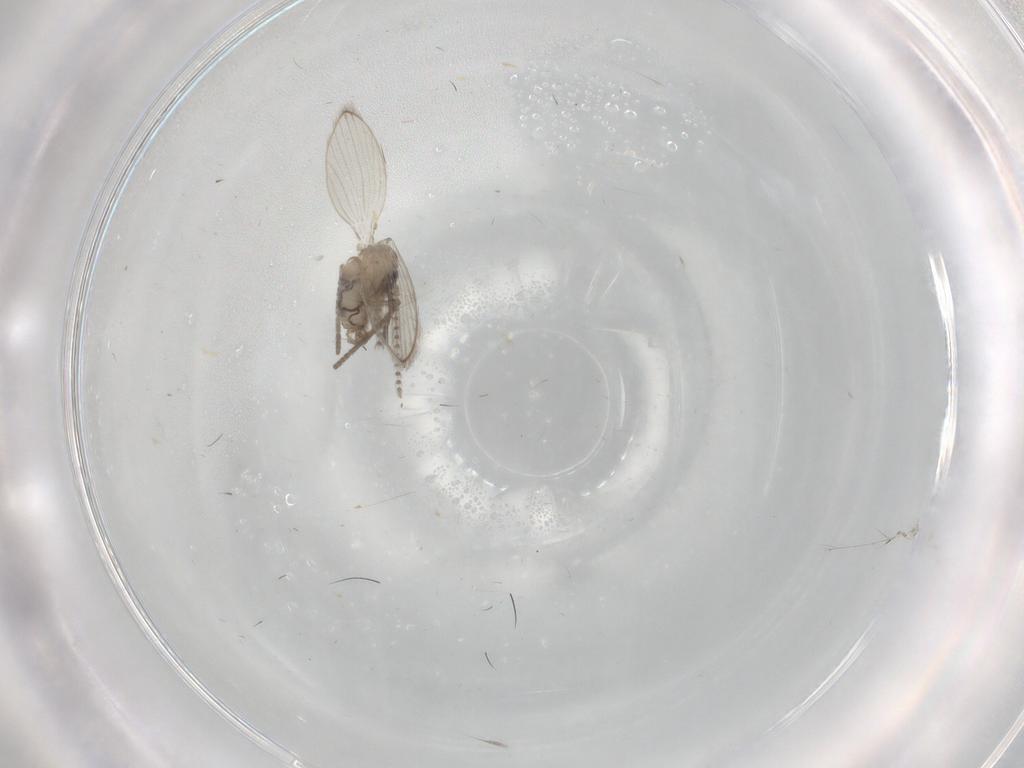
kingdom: Animalia
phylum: Arthropoda
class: Insecta
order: Diptera
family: Psychodidae
